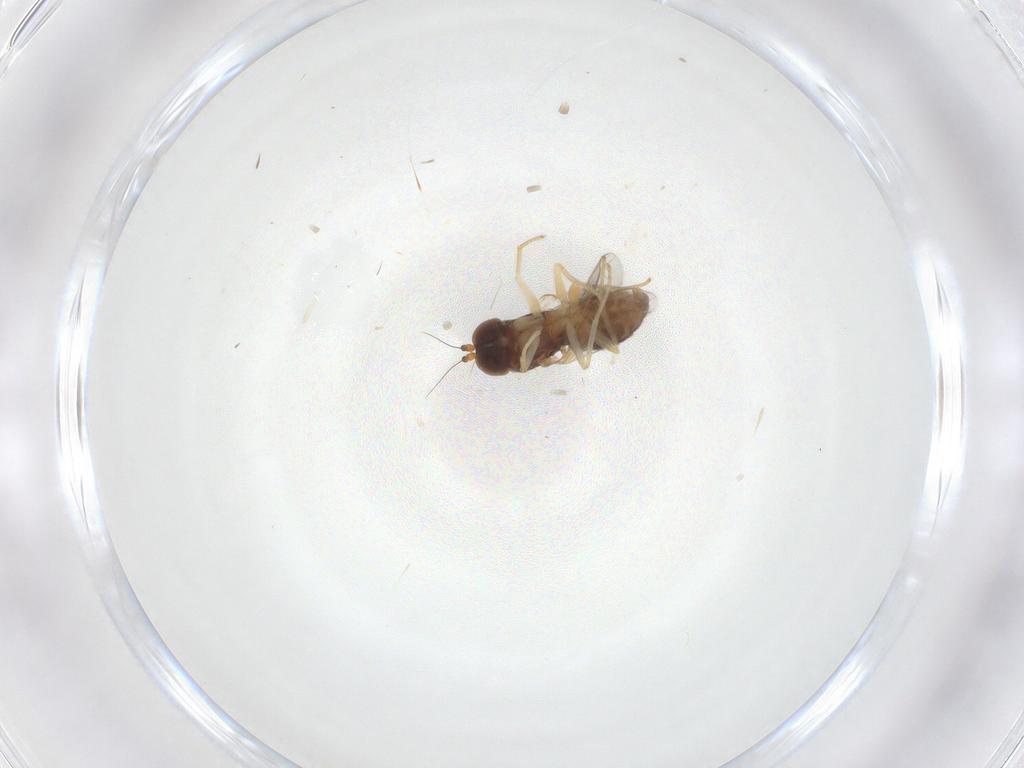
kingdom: Animalia
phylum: Arthropoda
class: Insecta
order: Diptera
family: Dolichopodidae
